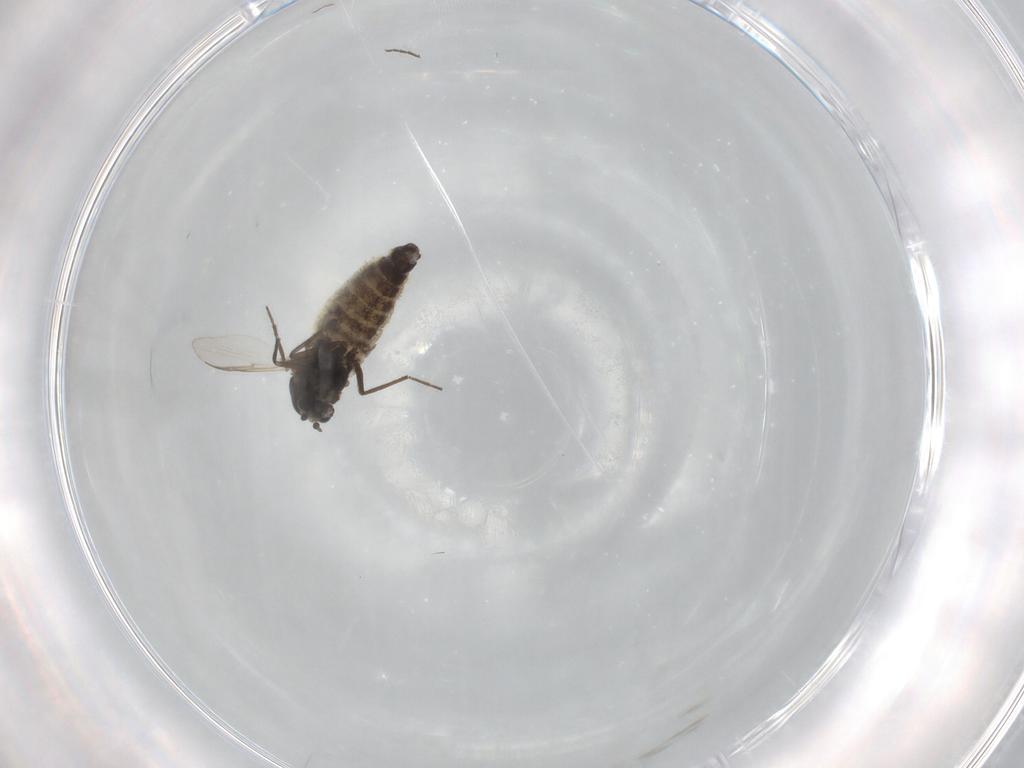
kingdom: Animalia
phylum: Arthropoda
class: Insecta
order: Diptera
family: Chloropidae
